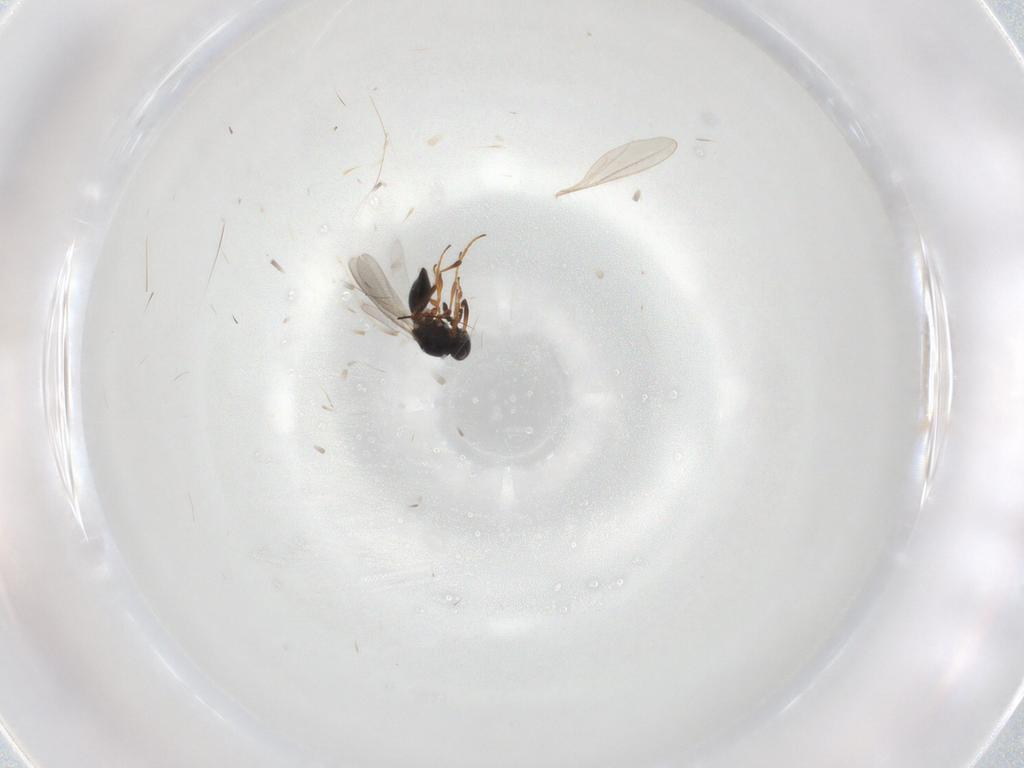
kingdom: Animalia
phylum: Arthropoda
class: Insecta
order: Hymenoptera
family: Platygastridae
